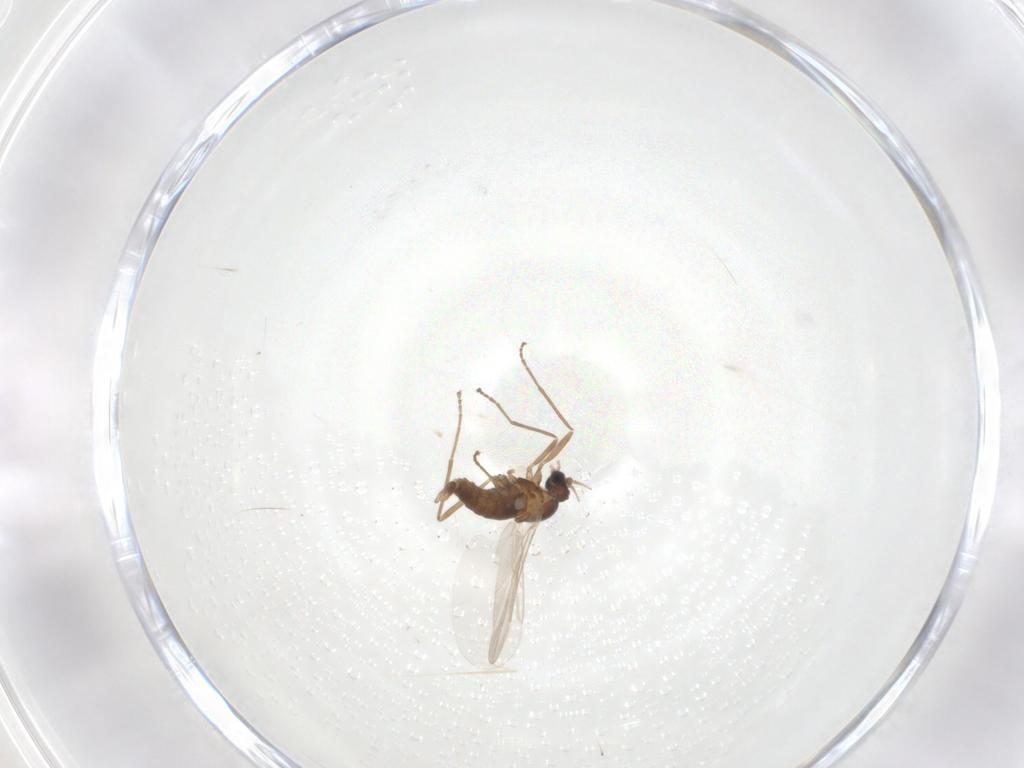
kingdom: Animalia
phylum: Arthropoda
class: Insecta
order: Diptera
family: Cecidomyiidae
